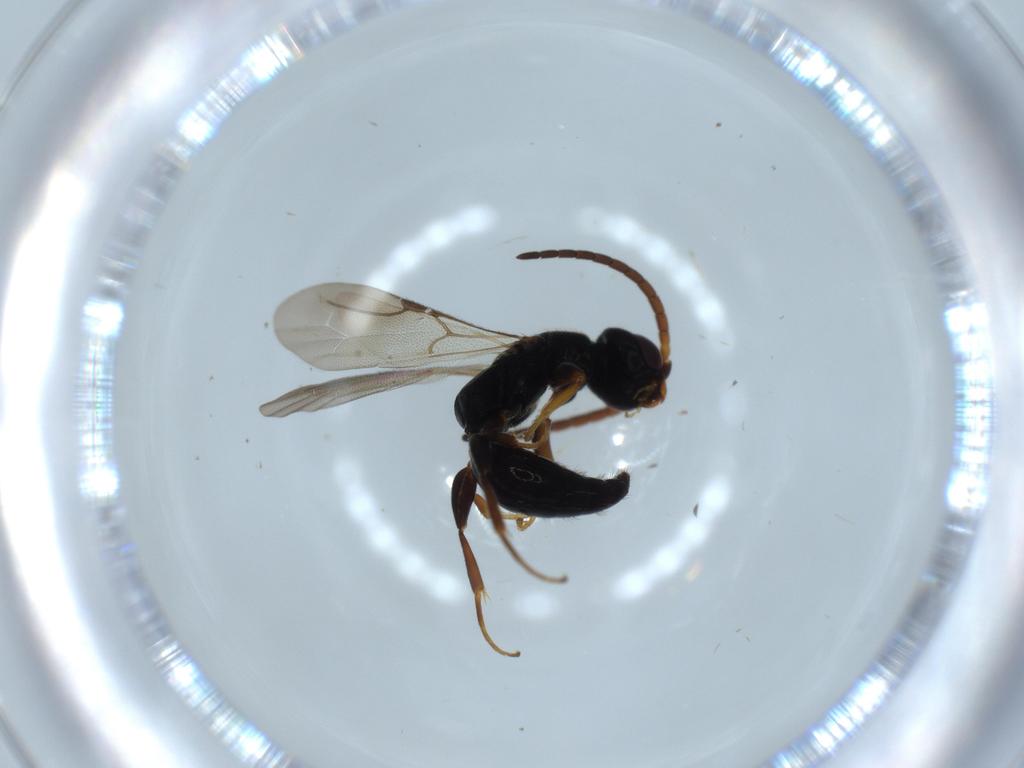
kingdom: Animalia
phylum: Arthropoda
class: Insecta
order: Hymenoptera
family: Bethylidae
